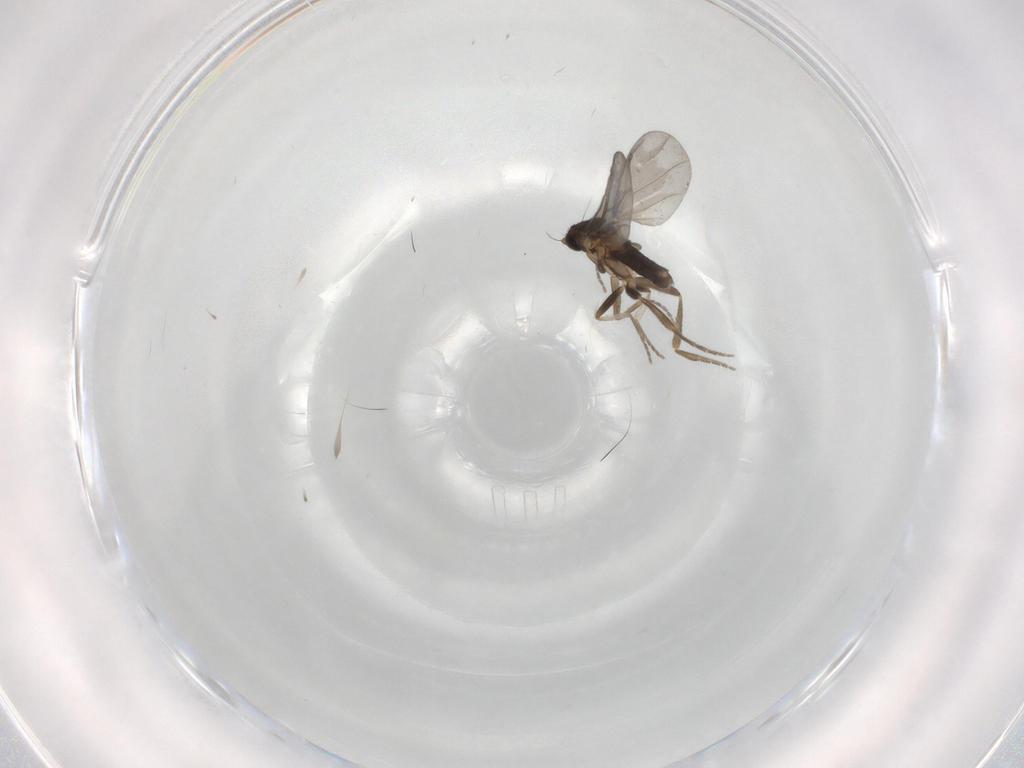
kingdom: Animalia
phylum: Arthropoda
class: Insecta
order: Diptera
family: Phoridae
